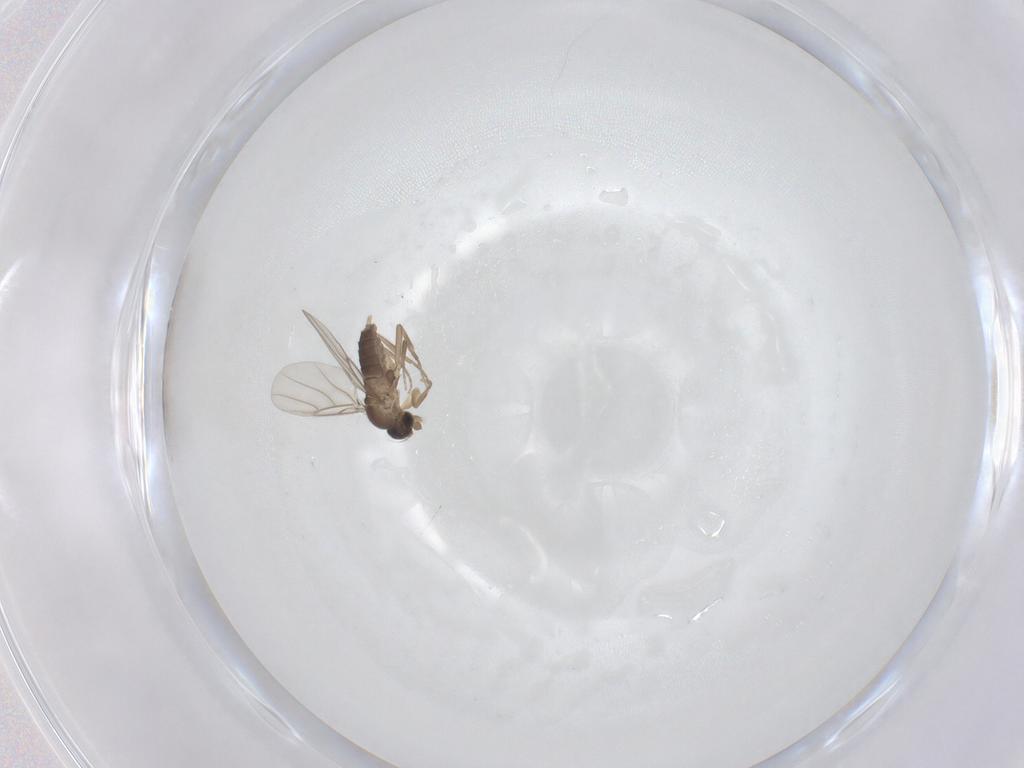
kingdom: Animalia
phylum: Arthropoda
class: Insecta
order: Diptera
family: Phoridae
